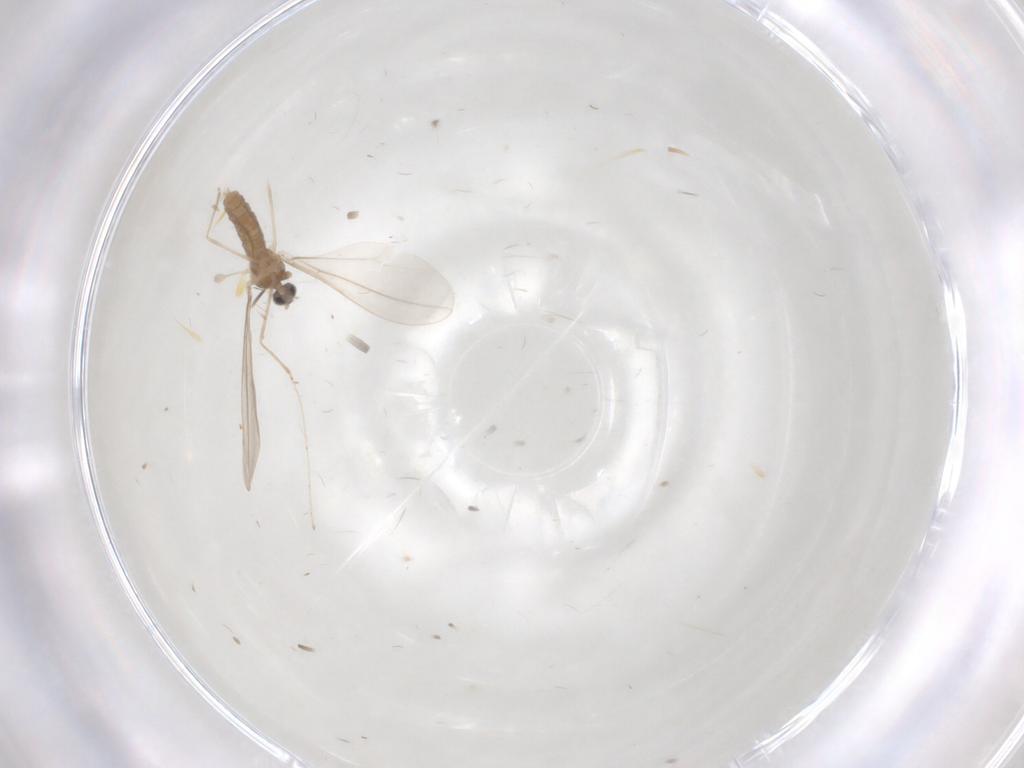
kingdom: Animalia
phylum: Arthropoda
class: Insecta
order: Diptera
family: Cecidomyiidae
